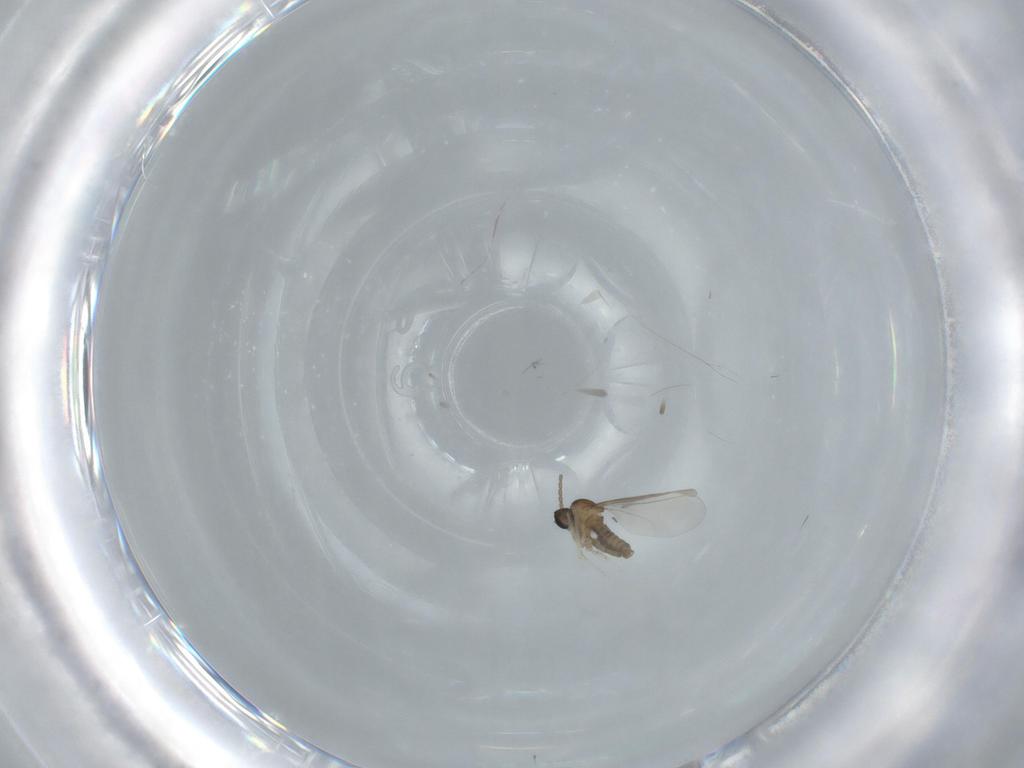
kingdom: Animalia
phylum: Arthropoda
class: Insecta
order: Diptera
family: Cecidomyiidae
